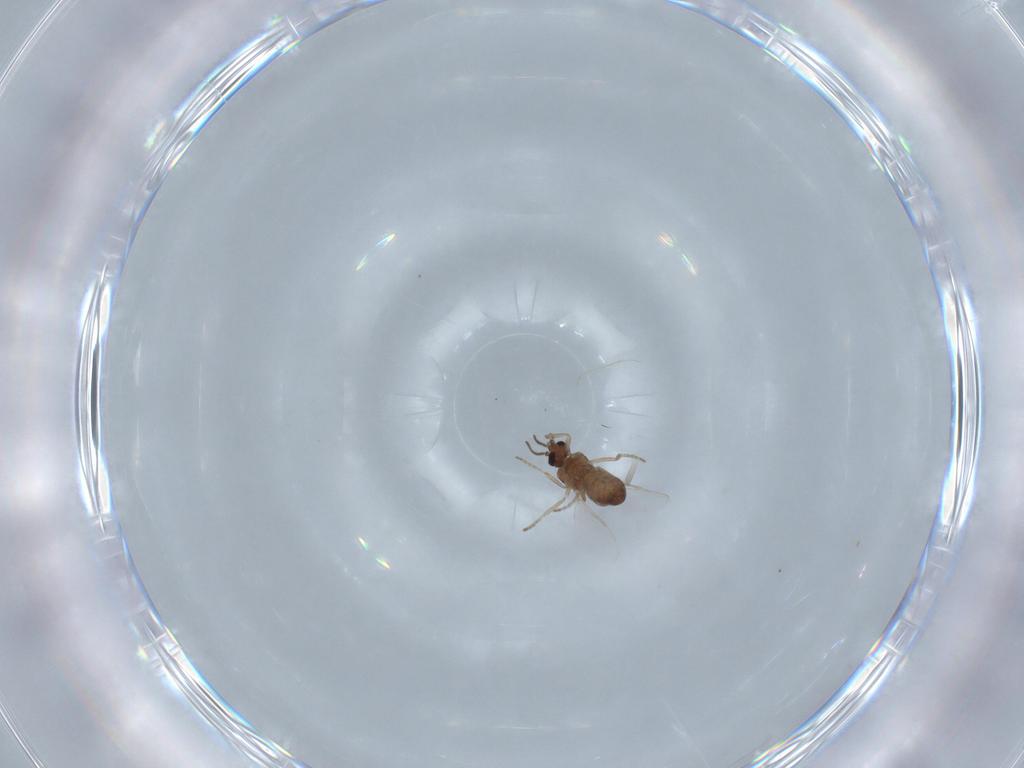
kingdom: Animalia
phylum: Arthropoda
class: Insecta
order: Diptera
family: Ceratopogonidae
